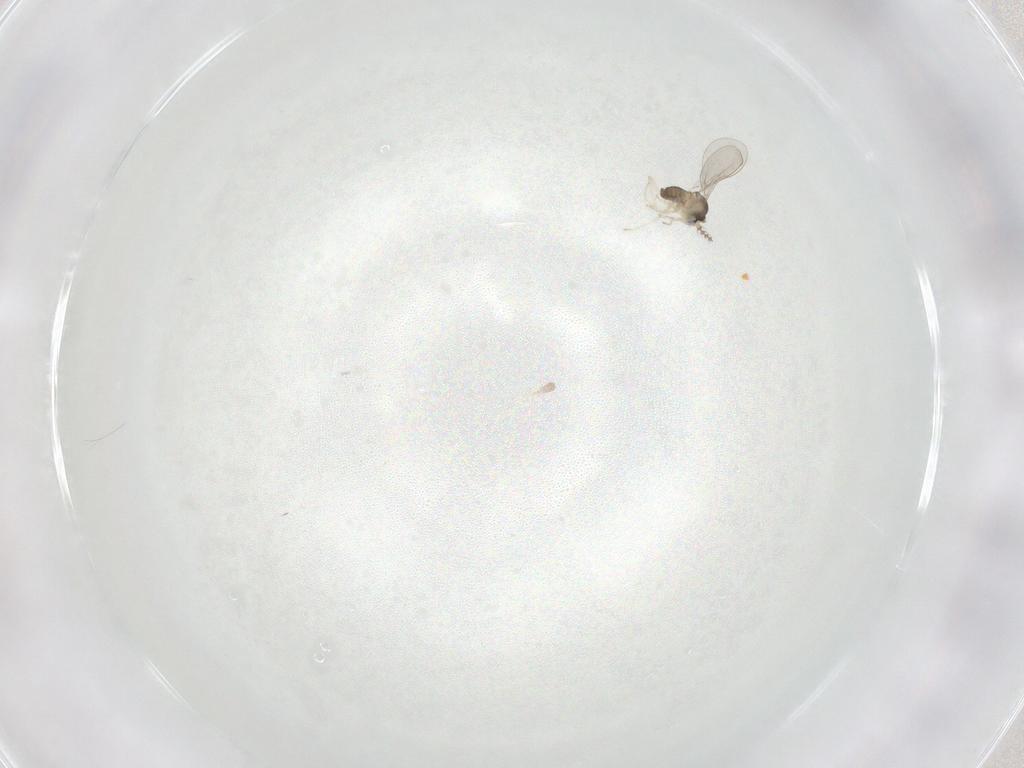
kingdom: Animalia
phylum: Arthropoda
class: Insecta
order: Diptera
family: Cecidomyiidae
